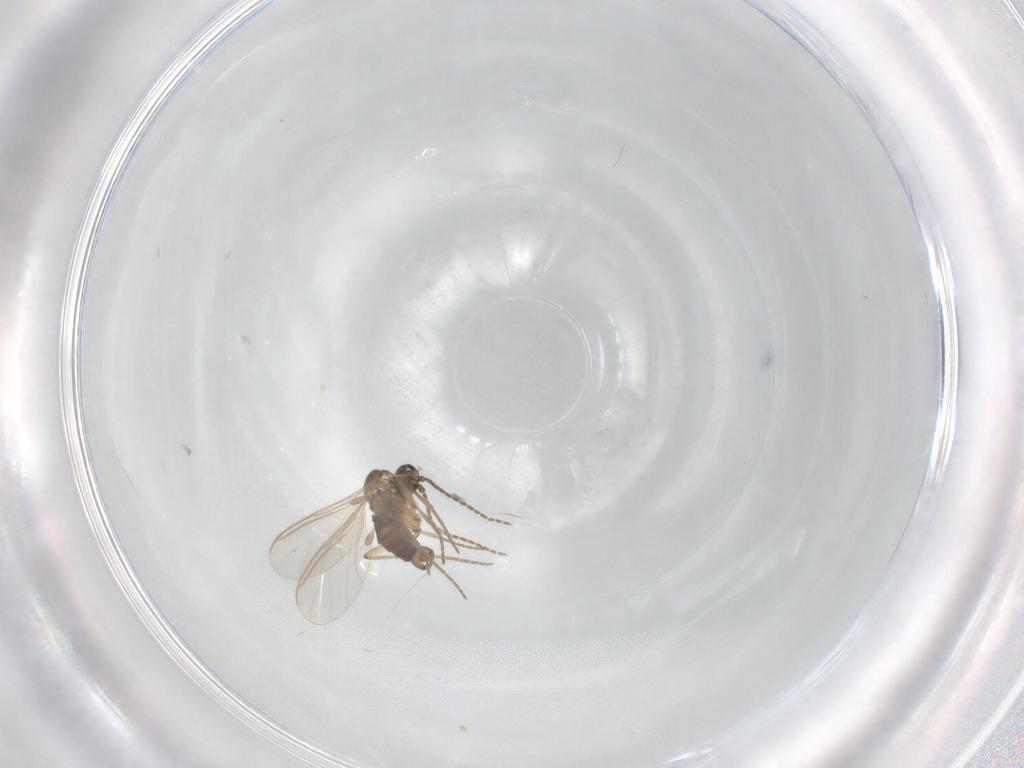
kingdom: Animalia
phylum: Arthropoda
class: Insecta
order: Diptera
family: Sciaridae
